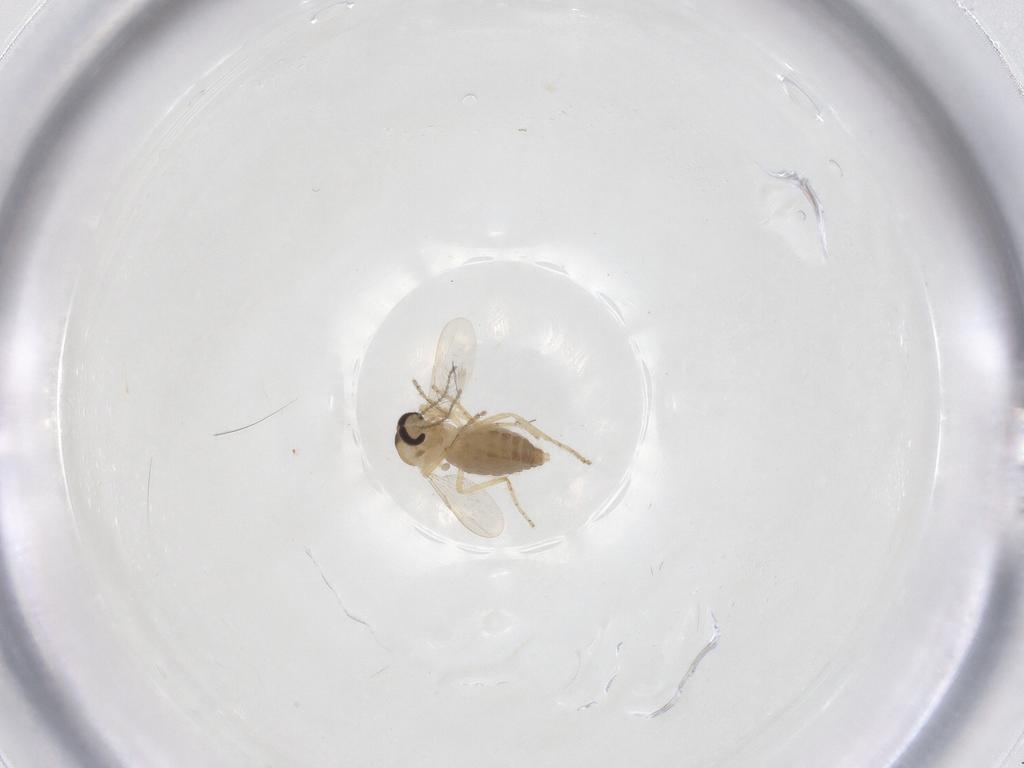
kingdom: Animalia
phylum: Arthropoda
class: Insecta
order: Diptera
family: Ceratopogonidae
